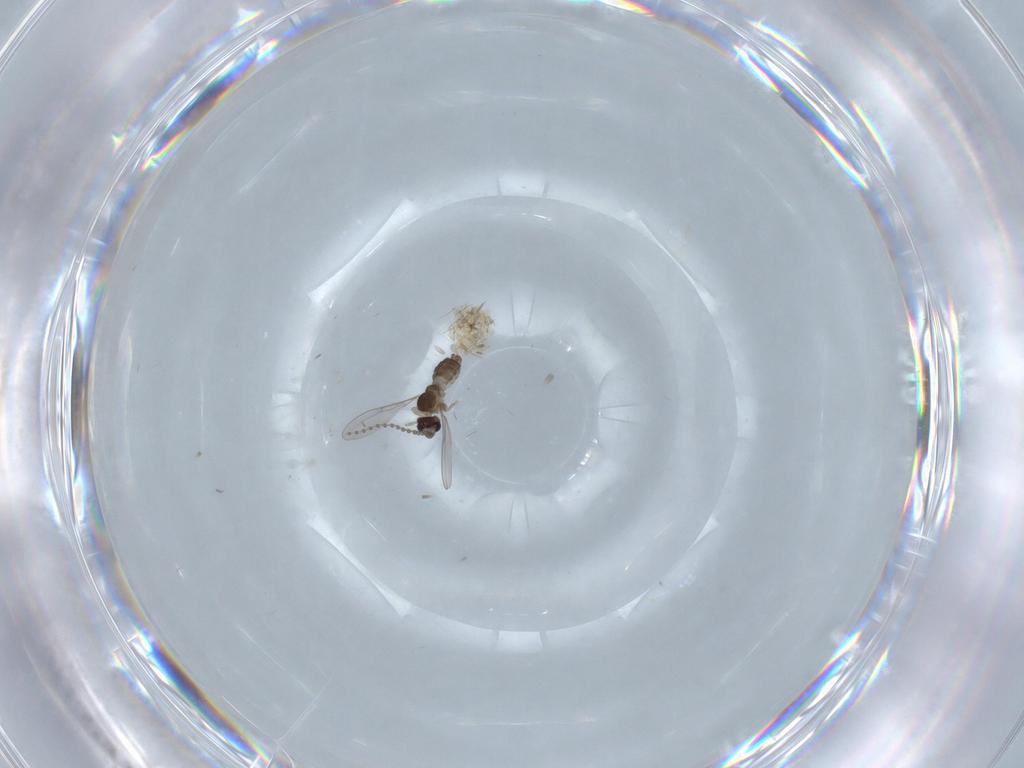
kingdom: Animalia
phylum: Arthropoda
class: Insecta
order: Diptera
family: Cecidomyiidae
